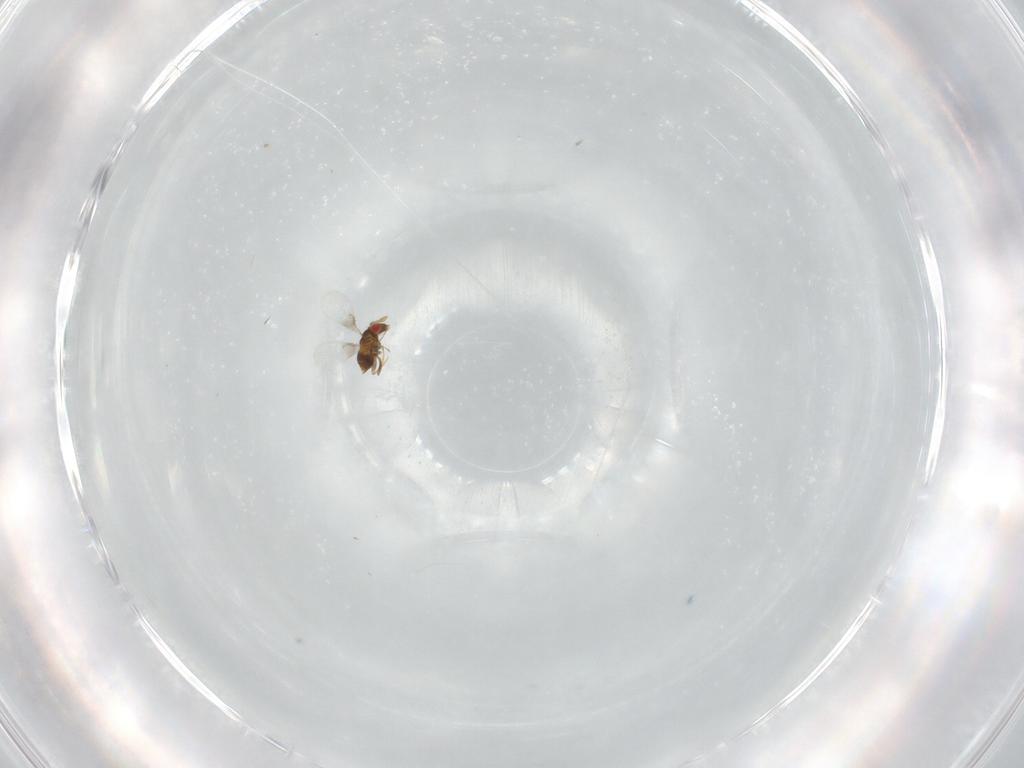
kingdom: Animalia
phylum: Arthropoda
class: Insecta
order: Hymenoptera
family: Trichogrammatidae
